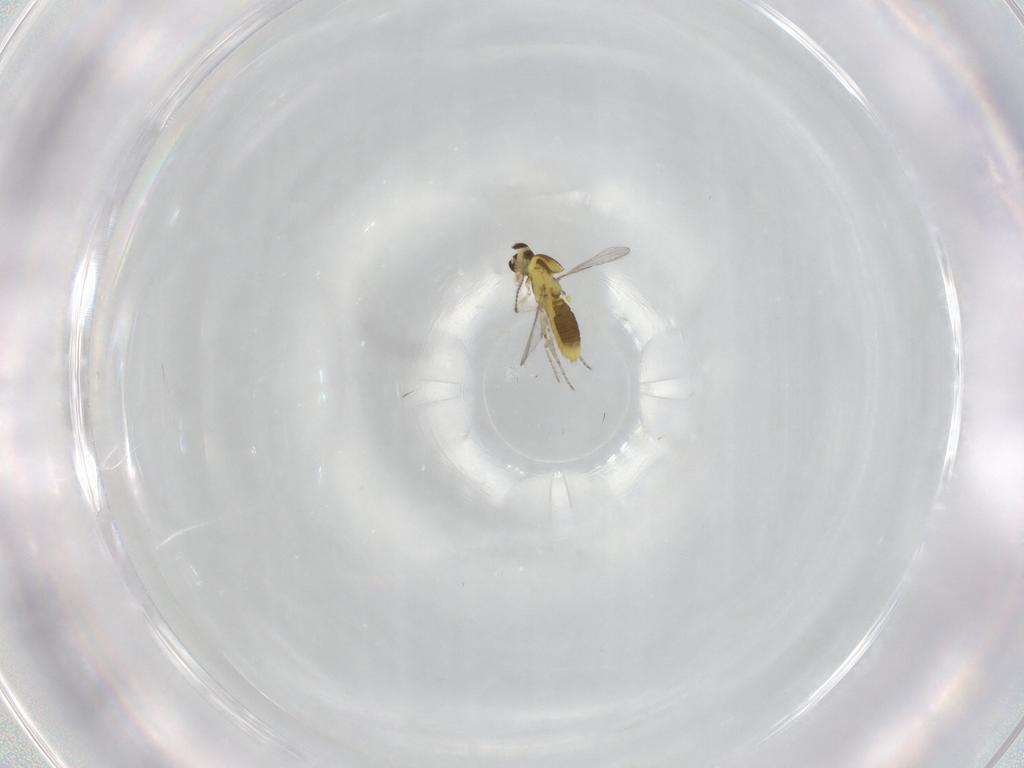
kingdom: Animalia
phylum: Arthropoda
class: Insecta
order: Diptera
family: Ceratopogonidae
